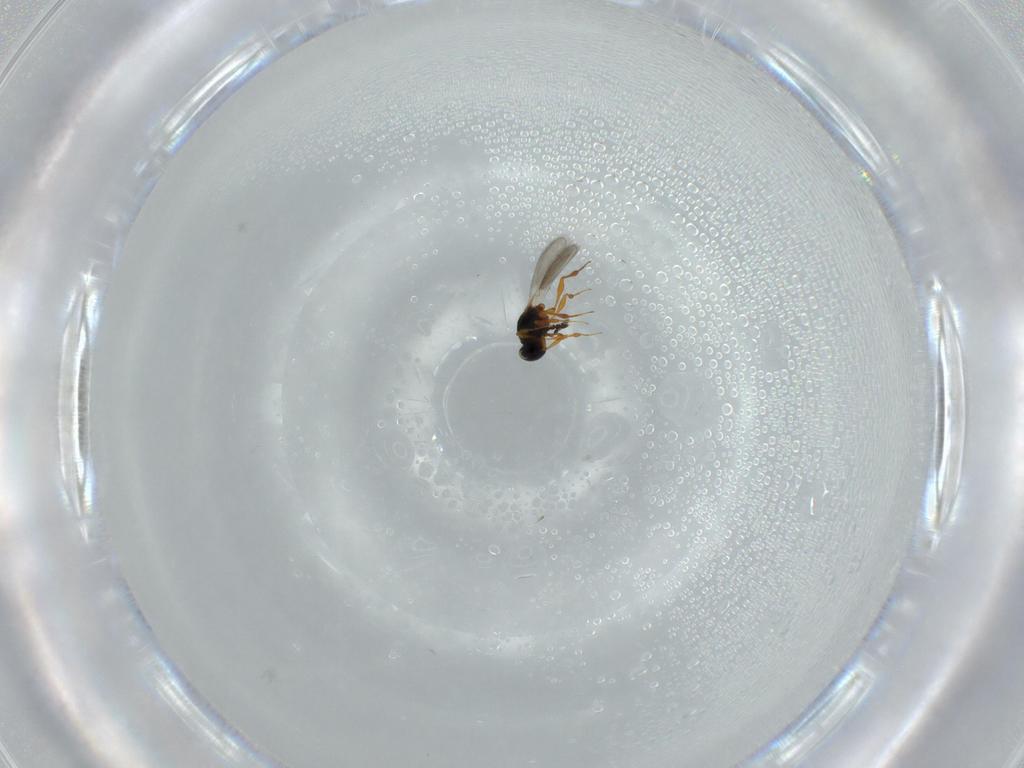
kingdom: Animalia
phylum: Arthropoda
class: Insecta
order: Hymenoptera
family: Platygastridae
